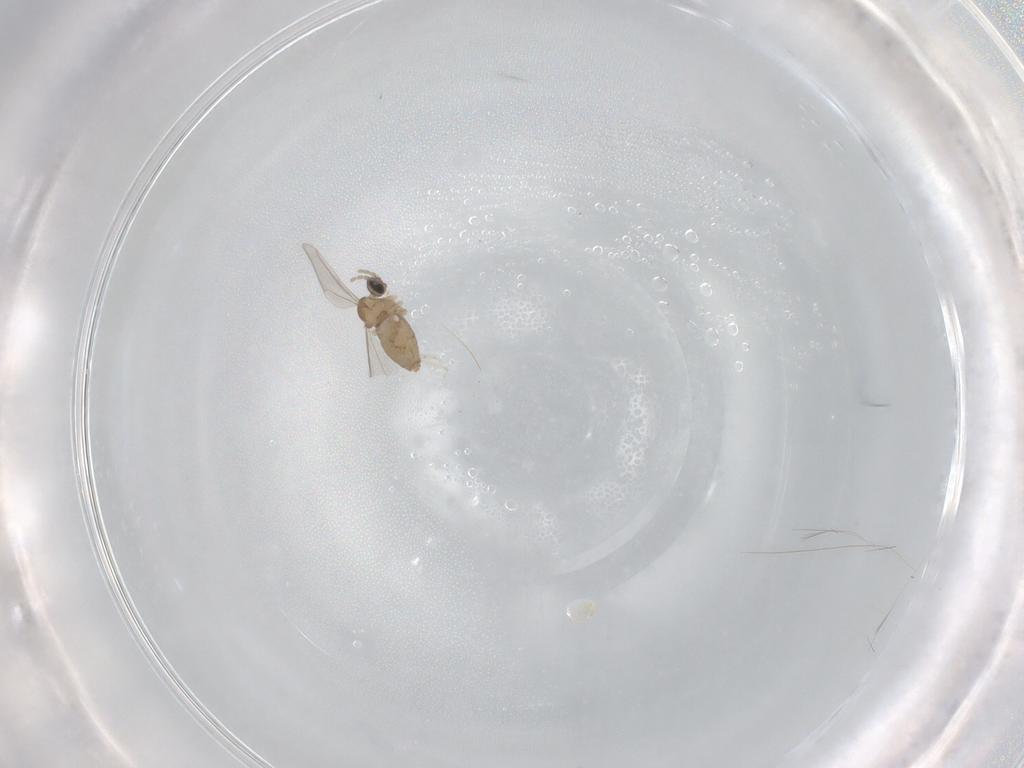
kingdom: Animalia
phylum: Arthropoda
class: Insecta
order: Diptera
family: Cecidomyiidae
